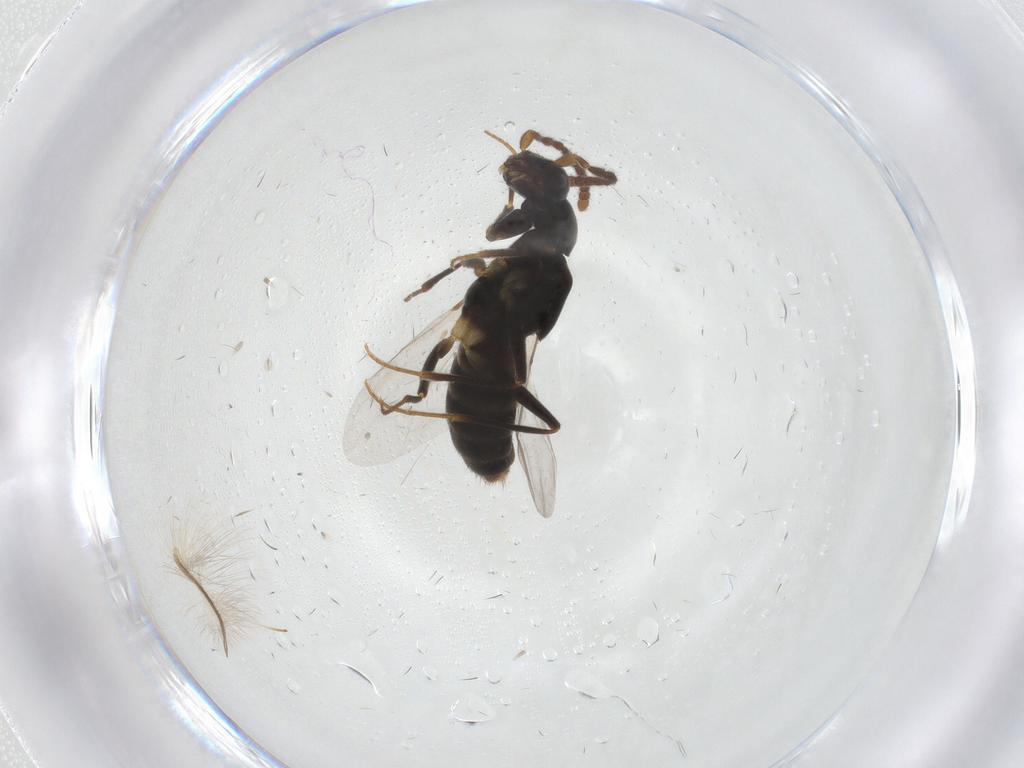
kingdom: Animalia
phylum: Arthropoda
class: Insecta
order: Coleoptera
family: Staphylinidae
